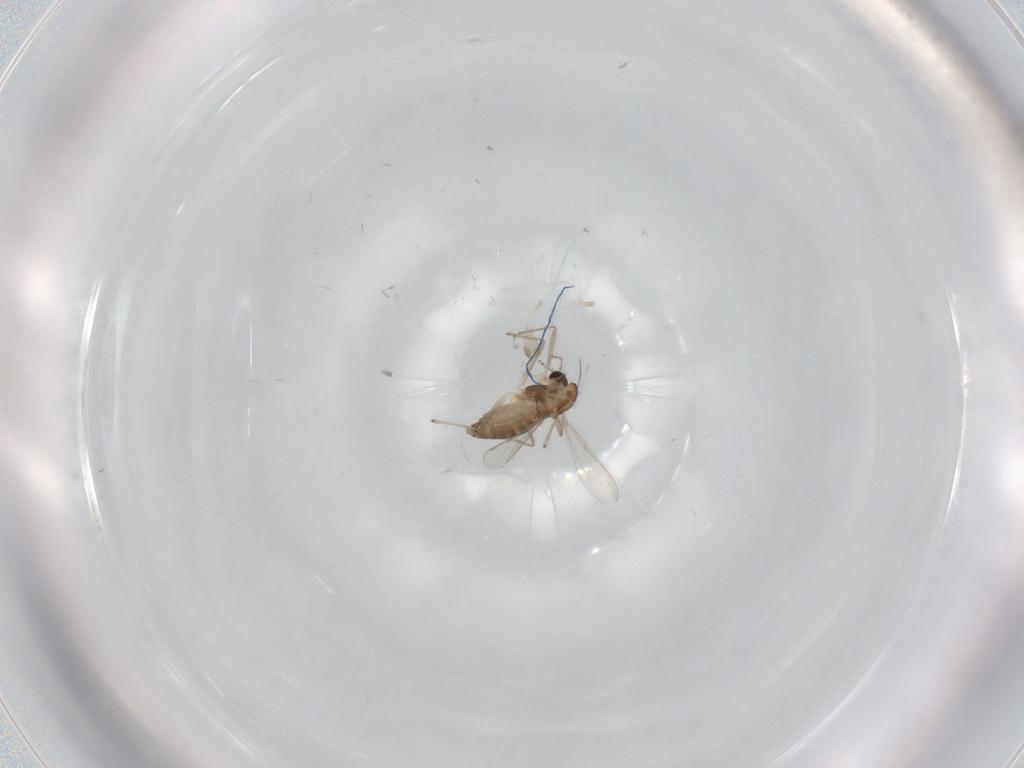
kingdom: Animalia
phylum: Arthropoda
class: Insecta
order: Diptera
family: Chironomidae
